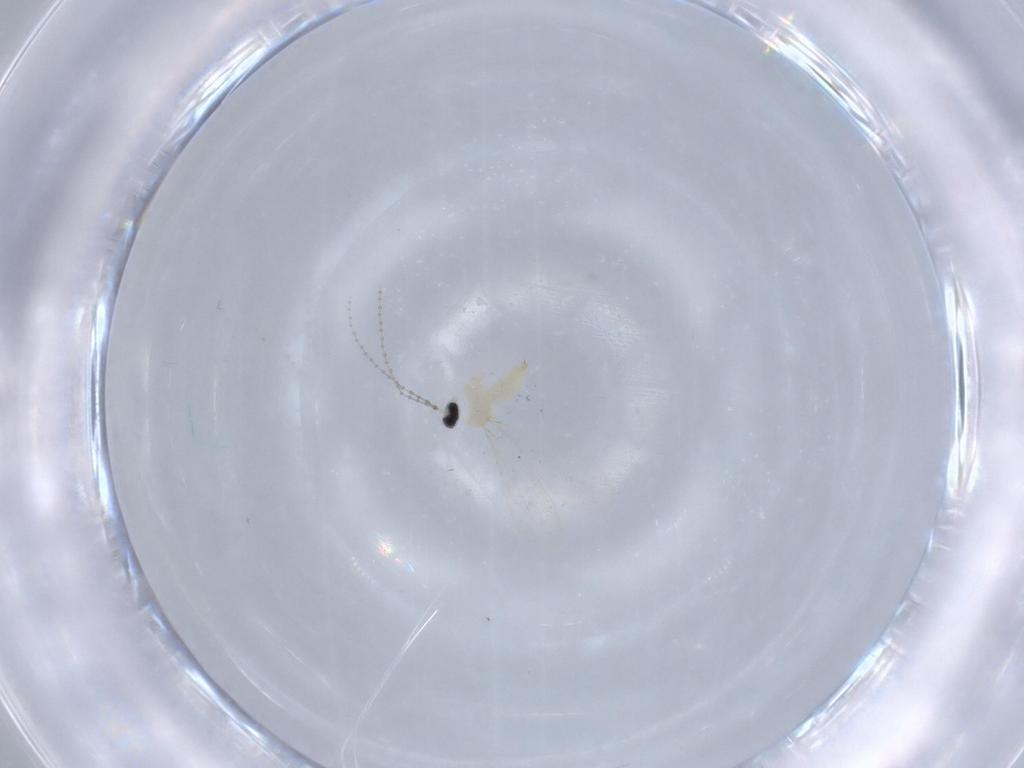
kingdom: Animalia
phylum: Arthropoda
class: Insecta
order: Diptera
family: Cecidomyiidae
